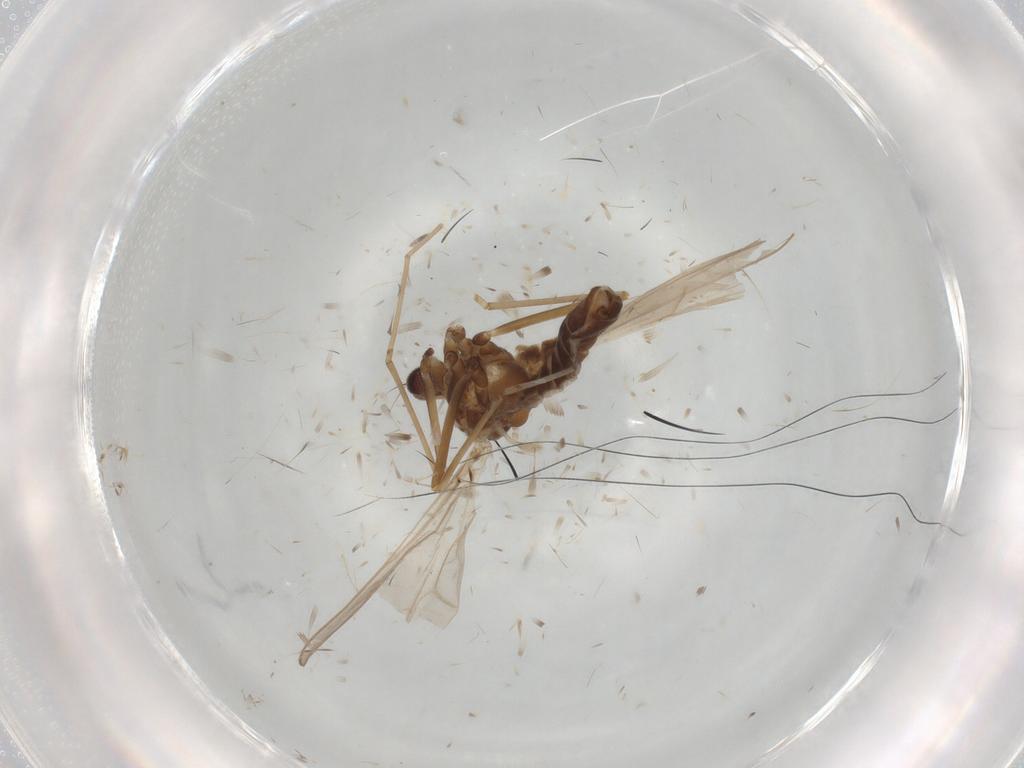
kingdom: Animalia
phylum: Arthropoda
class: Insecta
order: Diptera
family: Cecidomyiidae
